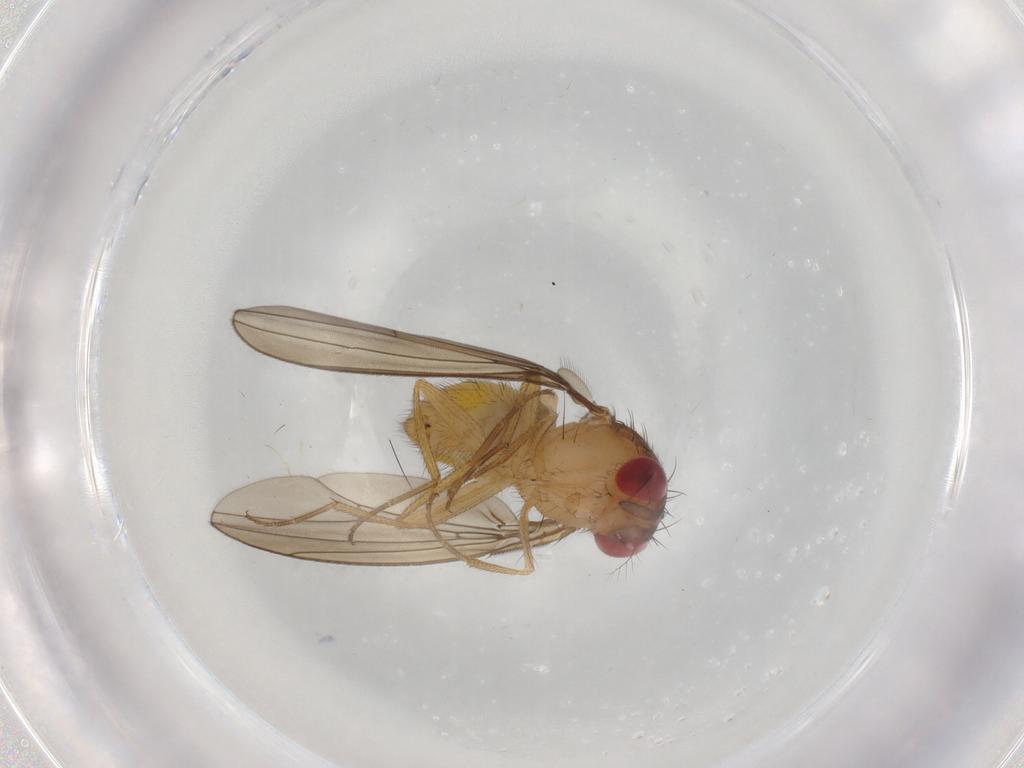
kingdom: Animalia
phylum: Arthropoda
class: Insecta
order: Diptera
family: Drosophilidae
